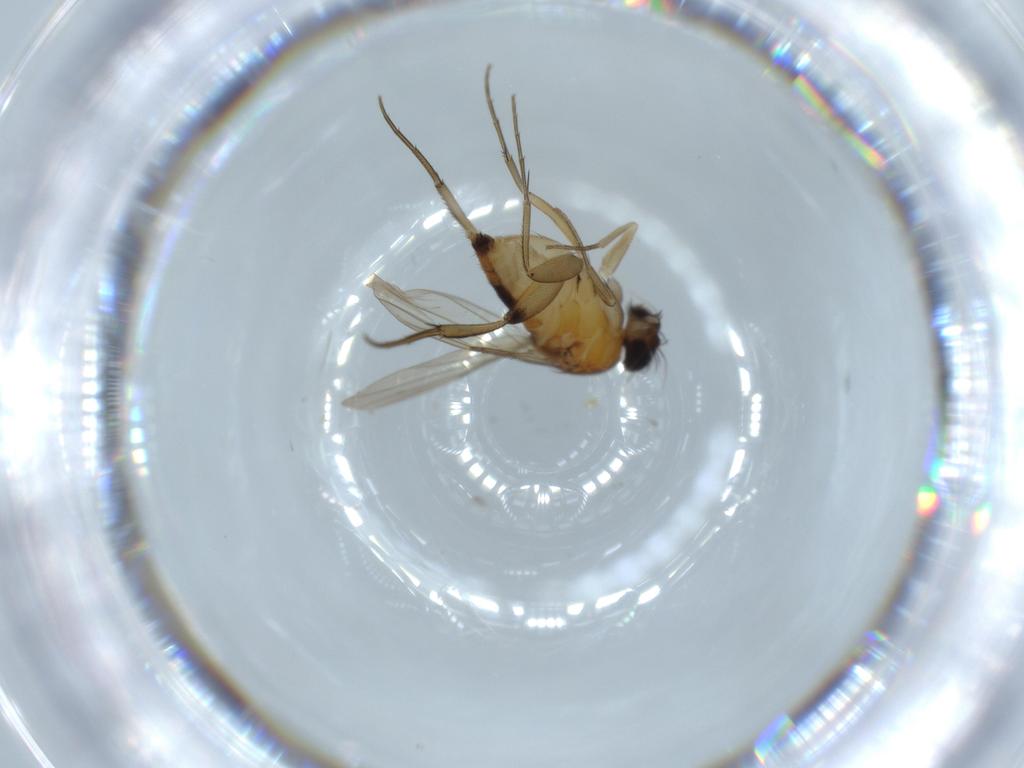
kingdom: Animalia
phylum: Arthropoda
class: Insecta
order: Diptera
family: Phoridae
